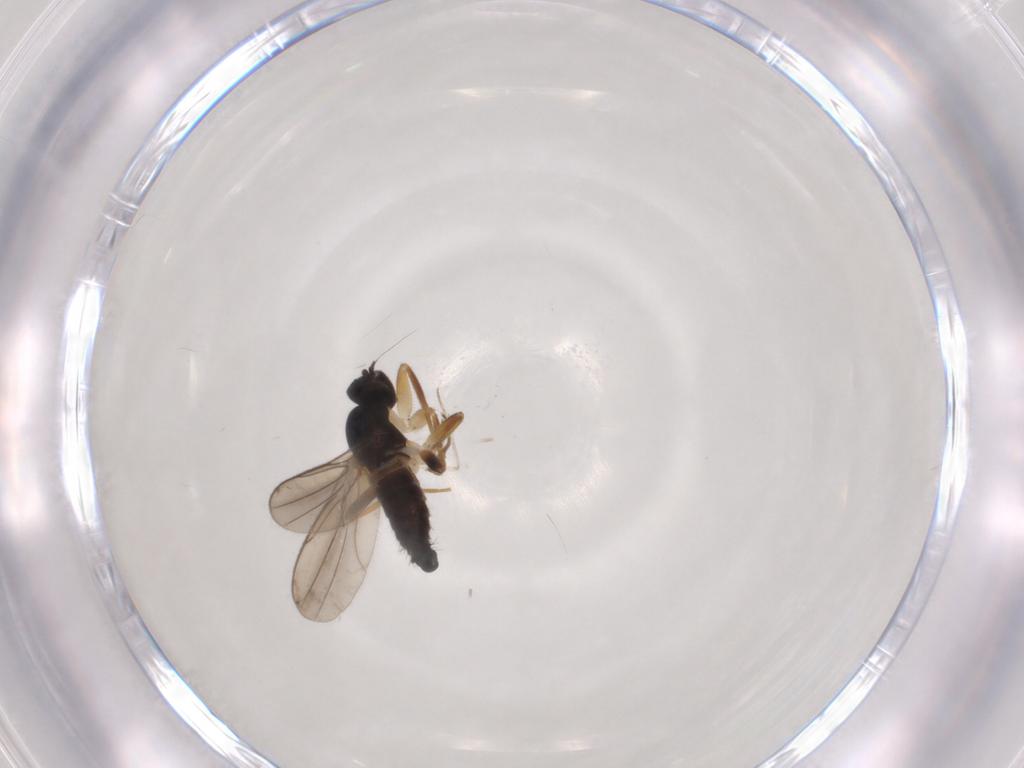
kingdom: Animalia
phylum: Arthropoda
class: Insecta
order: Diptera
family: Hybotidae
